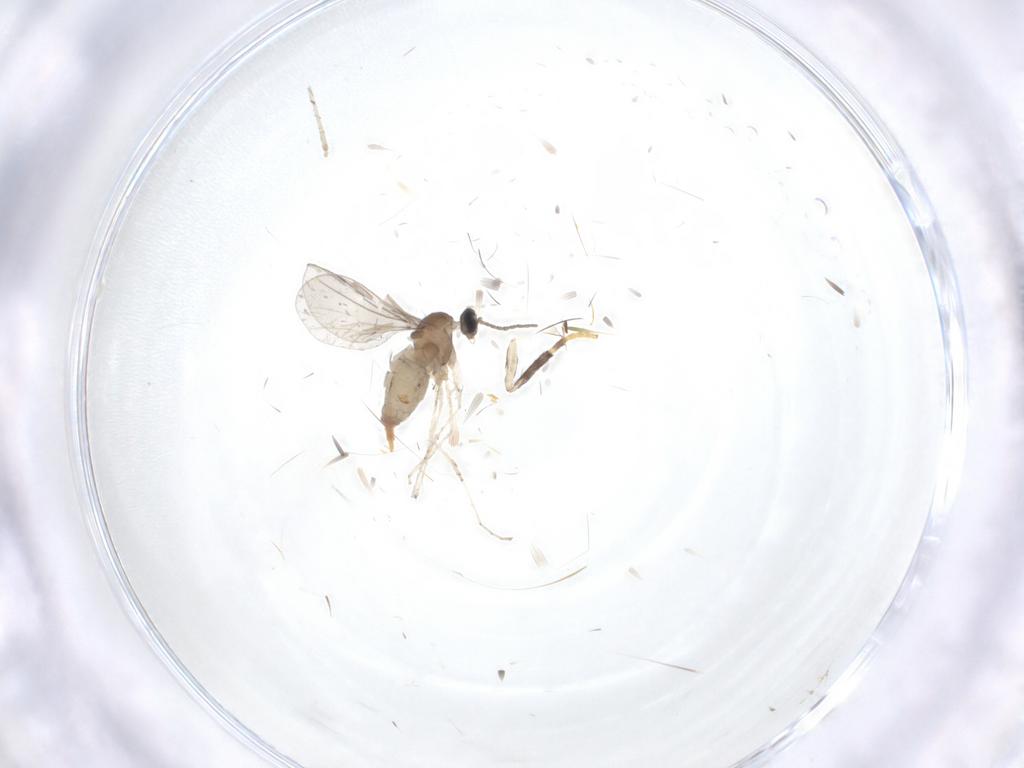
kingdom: Animalia
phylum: Arthropoda
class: Insecta
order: Diptera
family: Cecidomyiidae
